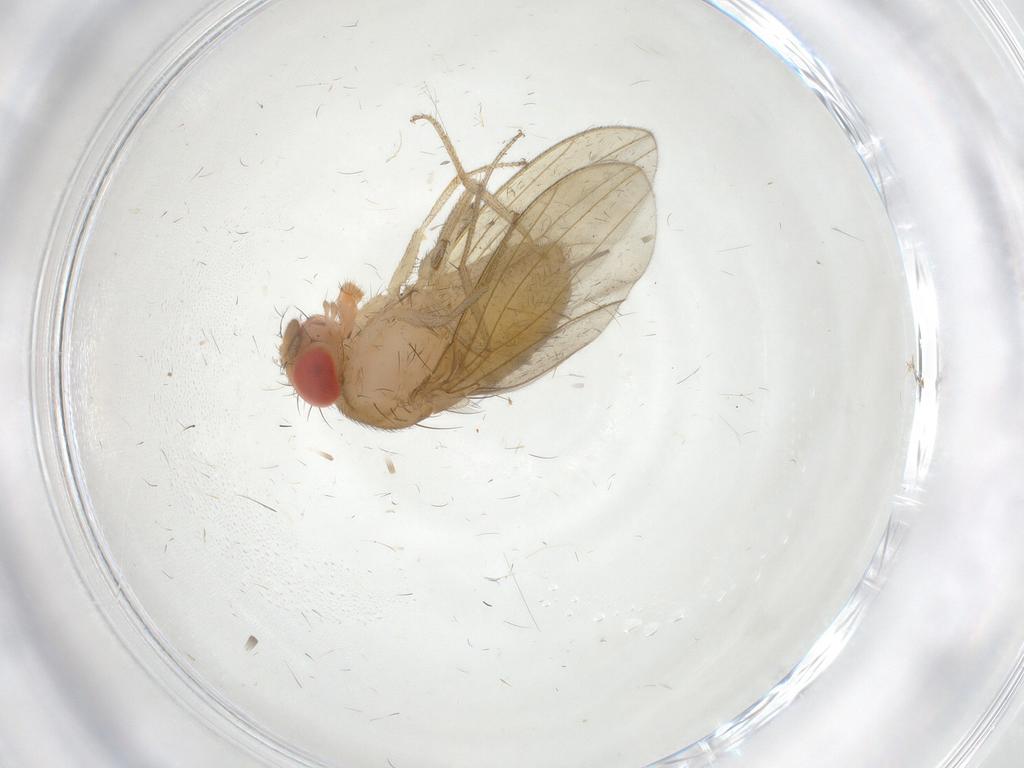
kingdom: Animalia
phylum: Arthropoda
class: Insecta
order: Diptera
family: Drosophilidae
